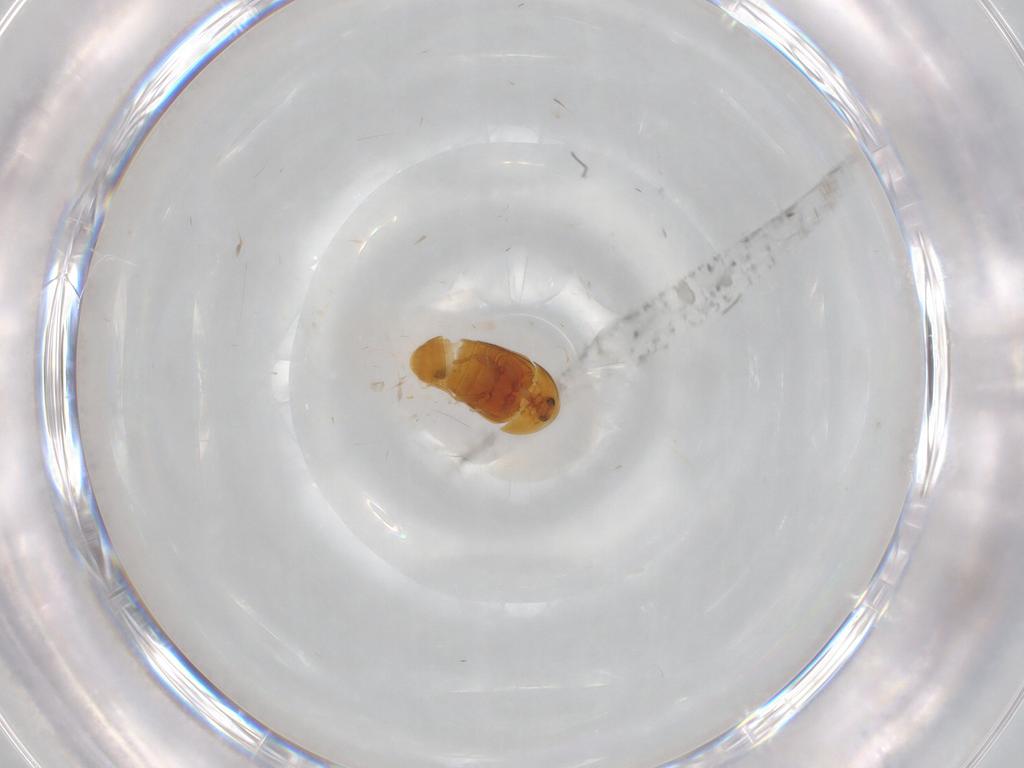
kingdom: Animalia
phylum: Arthropoda
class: Insecta
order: Coleoptera
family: Corylophidae
